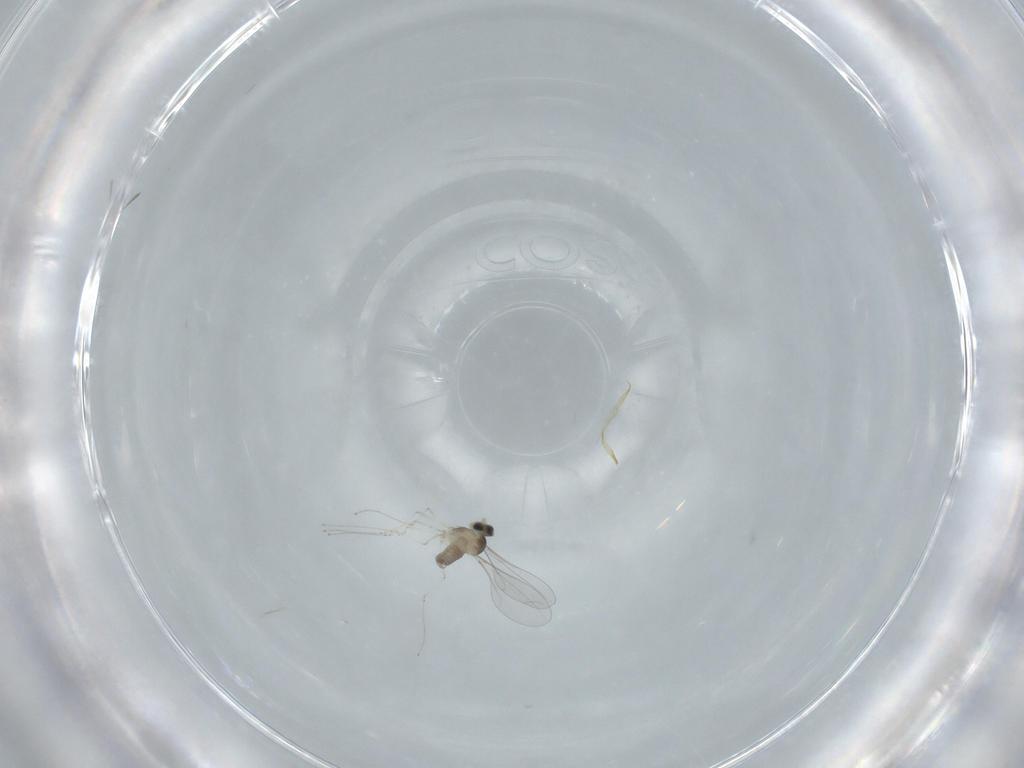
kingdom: Animalia
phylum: Arthropoda
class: Insecta
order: Diptera
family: Cecidomyiidae
